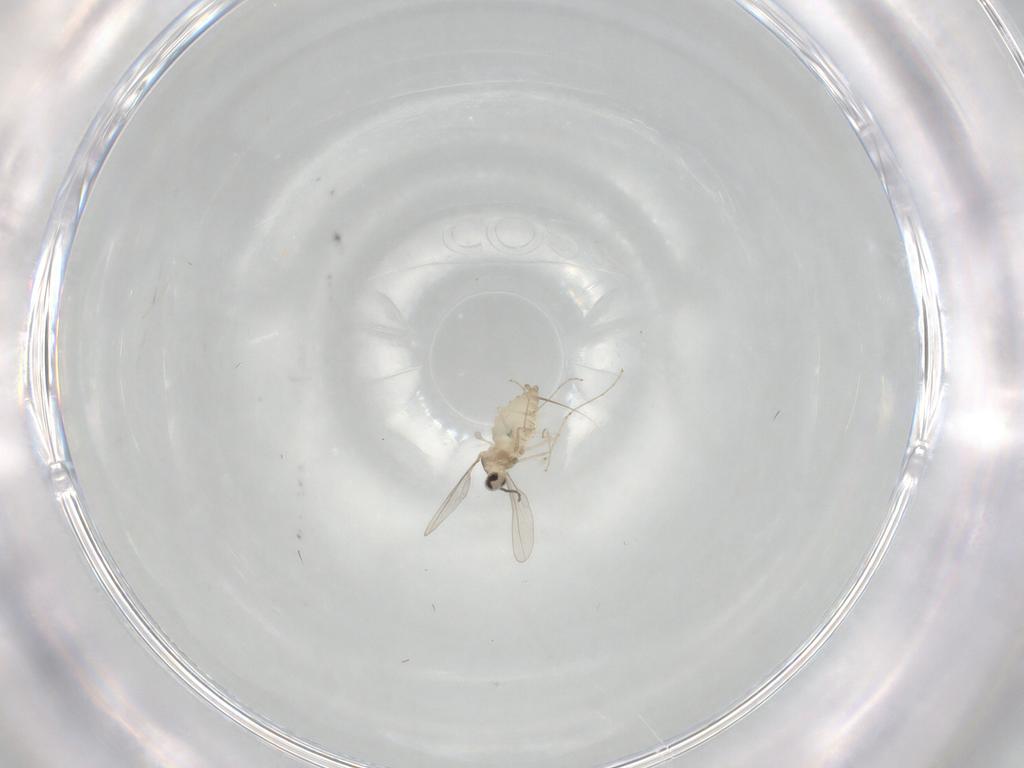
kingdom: Animalia
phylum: Arthropoda
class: Insecta
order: Diptera
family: Cecidomyiidae
